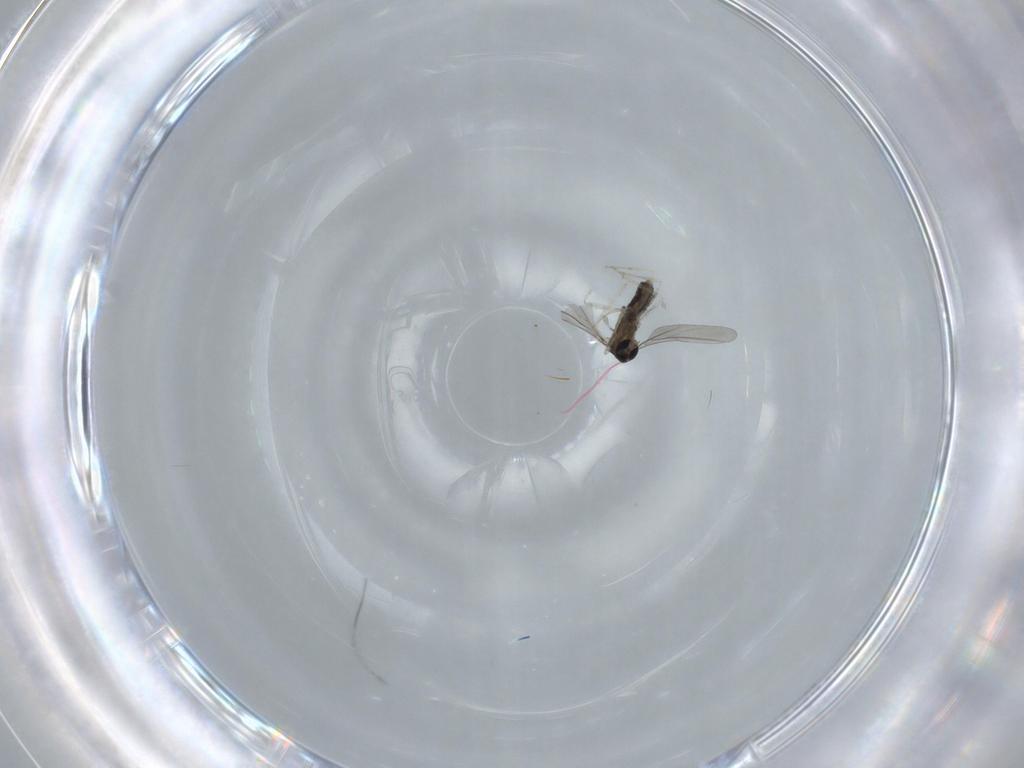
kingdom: Animalia
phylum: Arthropoda
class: Insecta
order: Diptera
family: Cecidomyiidae
